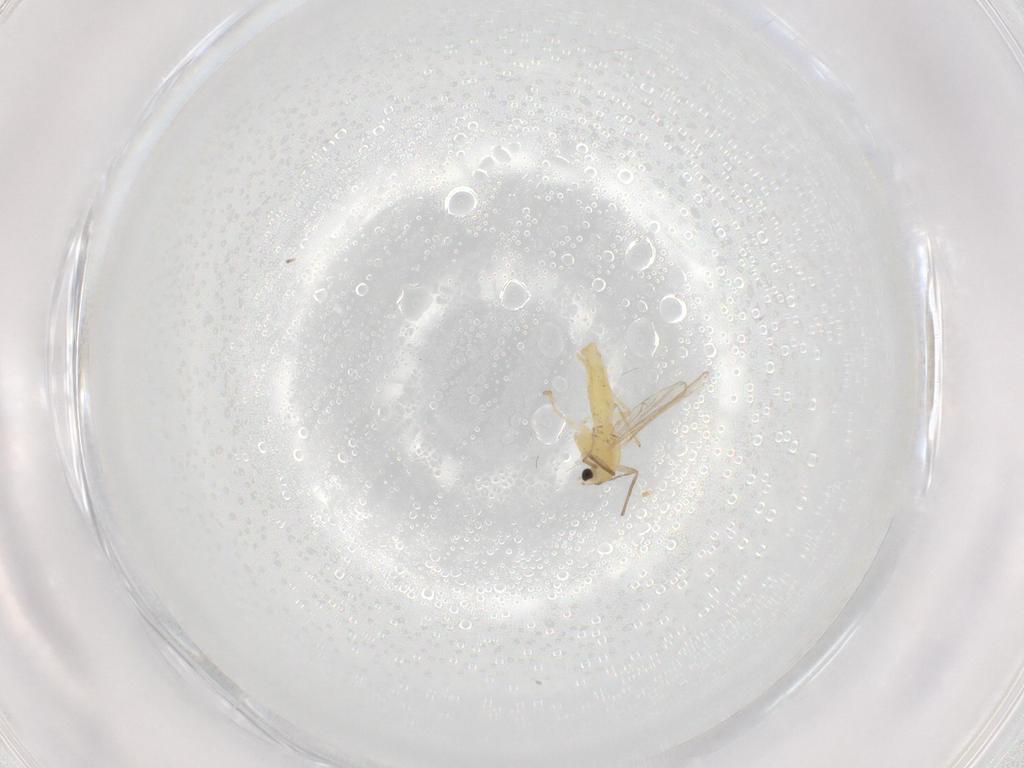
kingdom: Animalia
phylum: Arthropoda
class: Insecta
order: Diptera
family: Chironomidae
